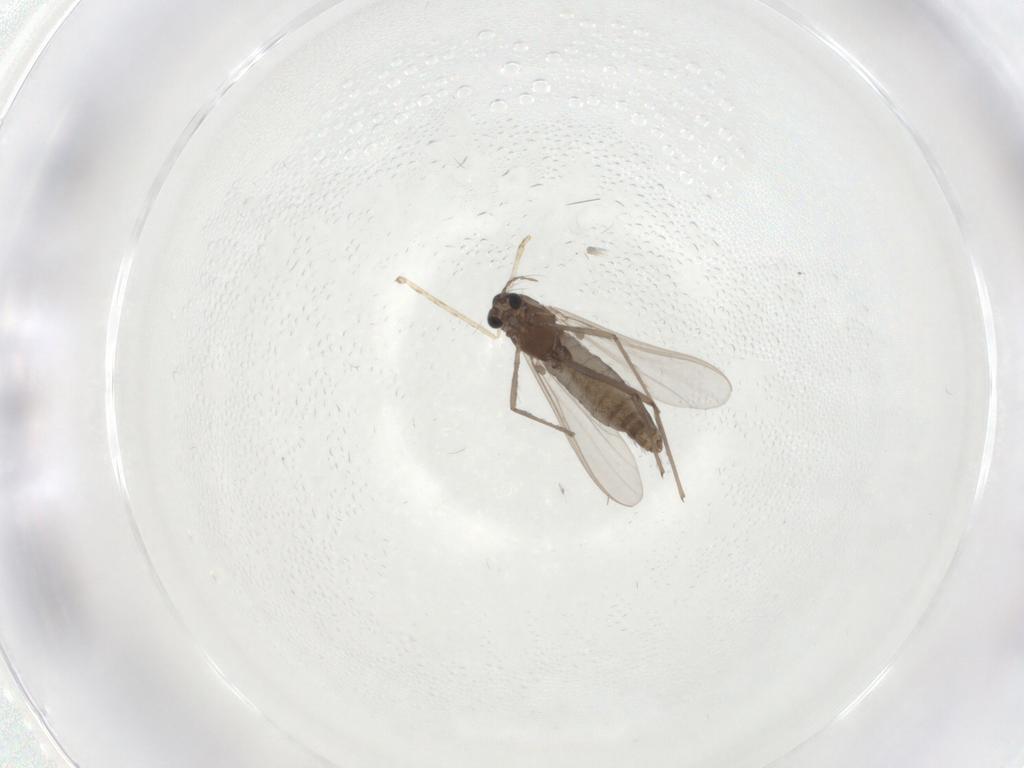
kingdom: Animalia
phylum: Arthropoda
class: Insecta
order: Diptera
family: Chironomidae
